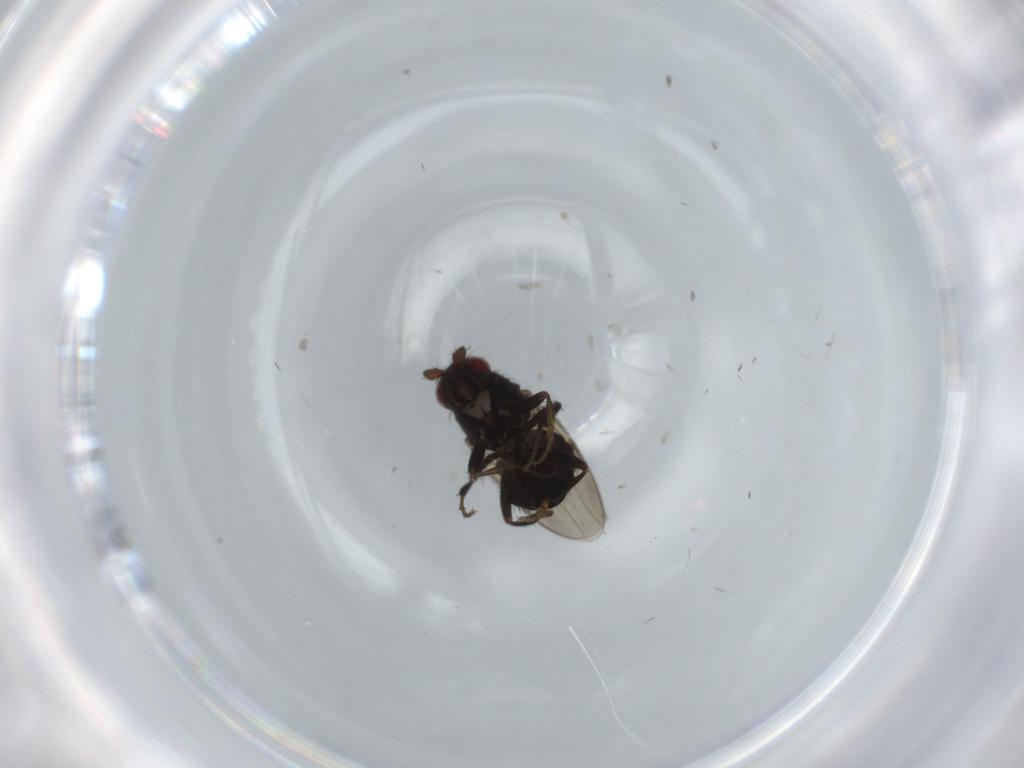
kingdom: Animalia
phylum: Arthropoda
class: Insecta
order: Diptera
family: Sphaeroceridae
